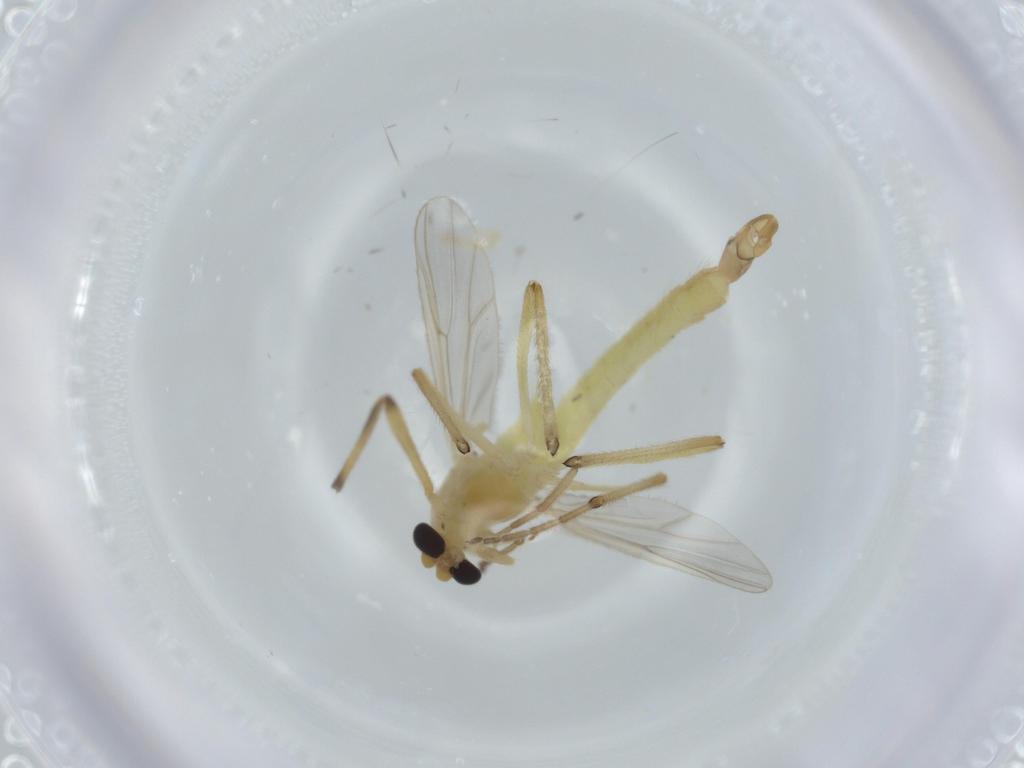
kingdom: Animalia
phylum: Arthropoda
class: Insecta
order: Diptera
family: Chironomidae
